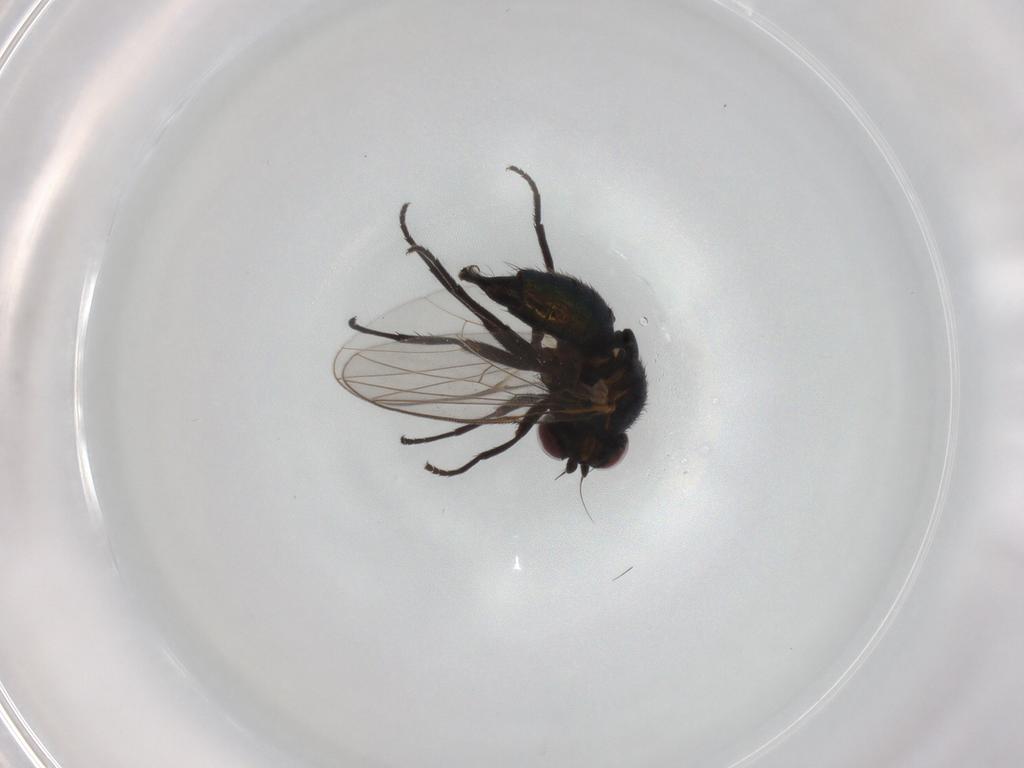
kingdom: Animalia
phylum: Arthropoda
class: Insecta
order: Diptera
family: Agromyzidae
